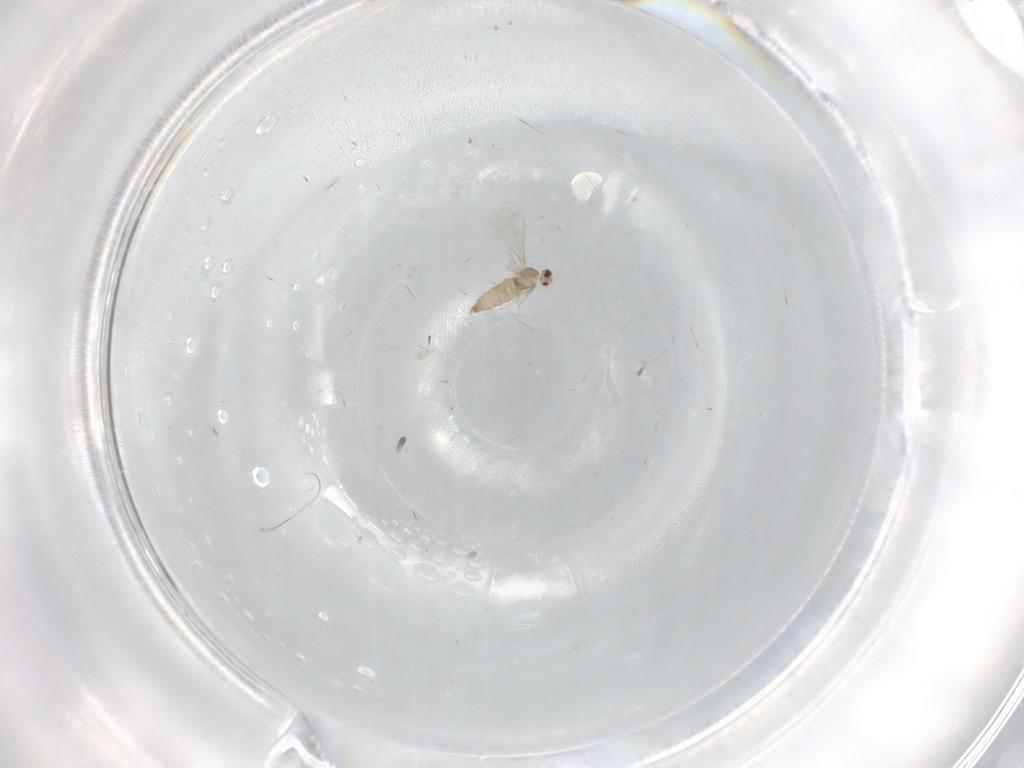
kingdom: Animalia
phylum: Arthropoda
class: Insecta
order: Diptera
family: Cecidomyiidae
